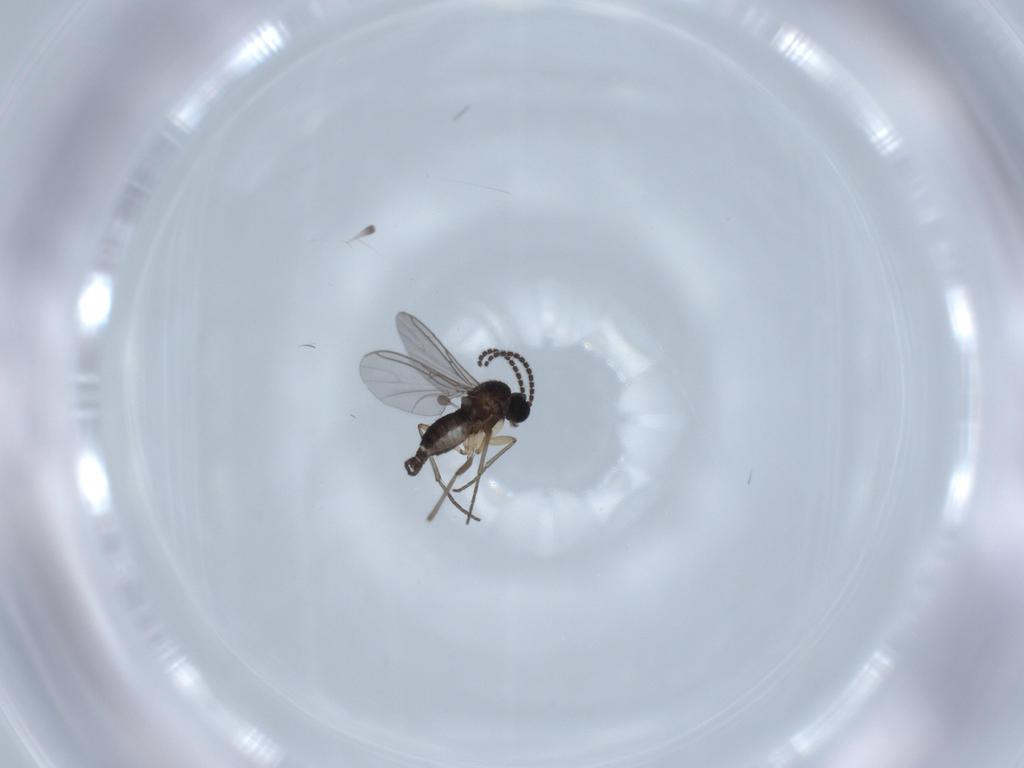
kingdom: Animalia
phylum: Arthropoda
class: Insecta
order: Diptera
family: Sciaridae
